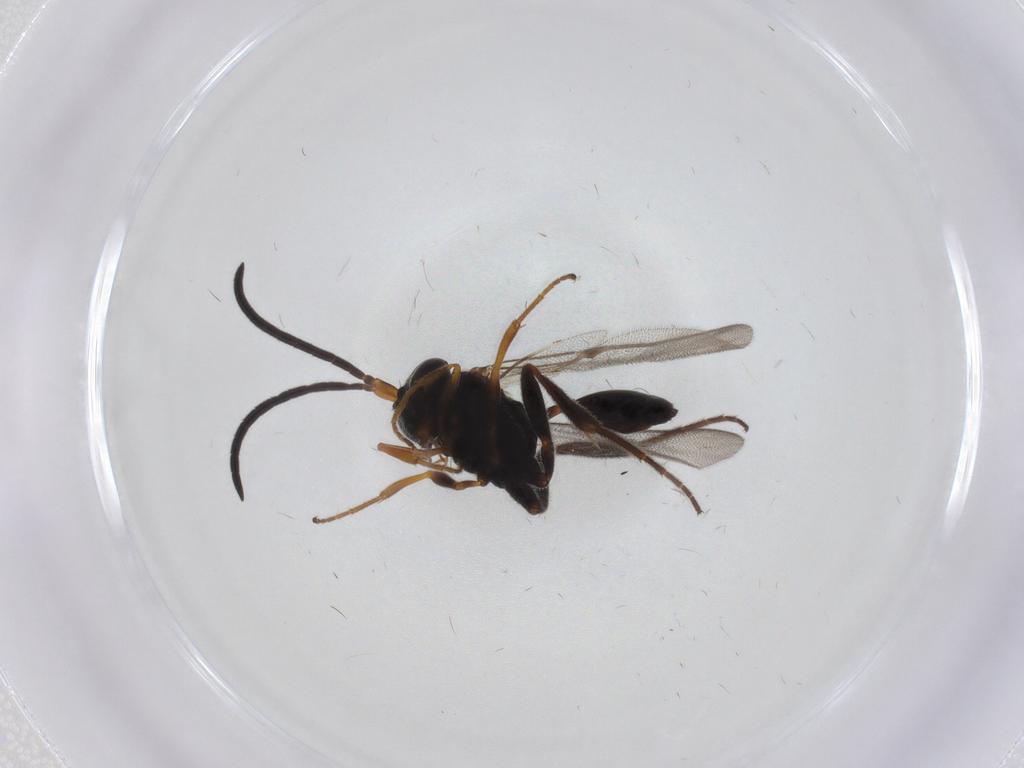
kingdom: Animalia
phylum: Arthropoda
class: Insecta
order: Hymenoptera
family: Evaniidae
